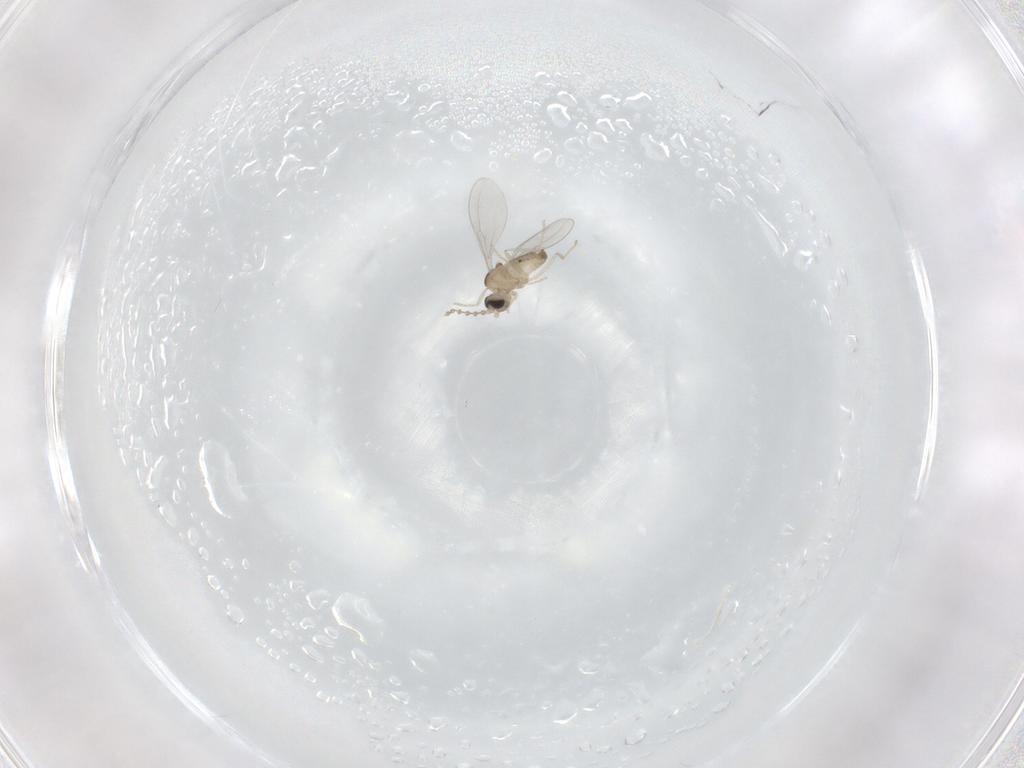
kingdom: Animalia
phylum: Arthropoda
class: Insecta
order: Diptera
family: Cecidomyiidae
